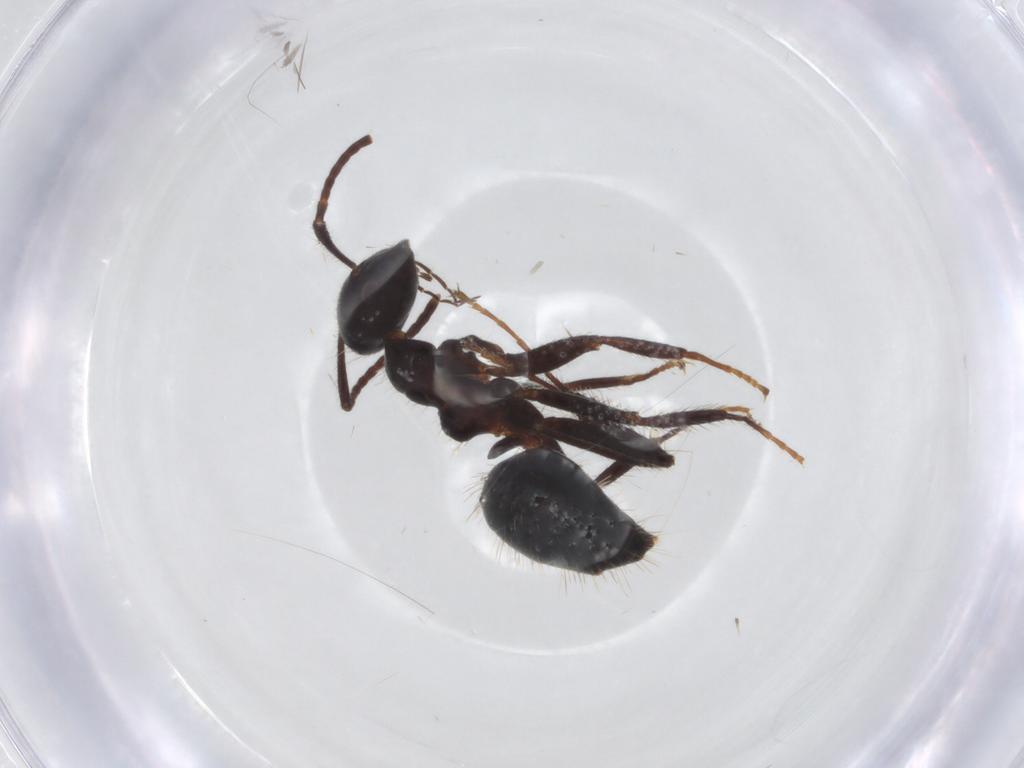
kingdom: Animalia
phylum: Arthropoda
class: Insecta
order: Hymenoptera
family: Formicidae
